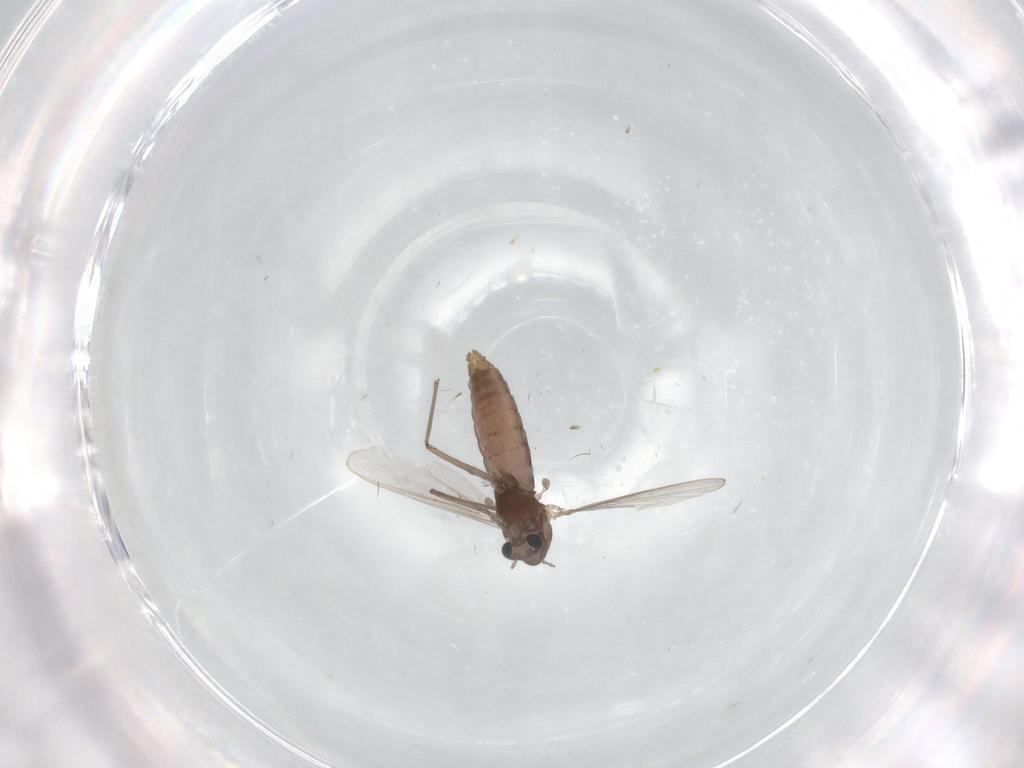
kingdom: Animalia
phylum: Arthropoda
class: Insecta
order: Diptera
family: Chironomidae
